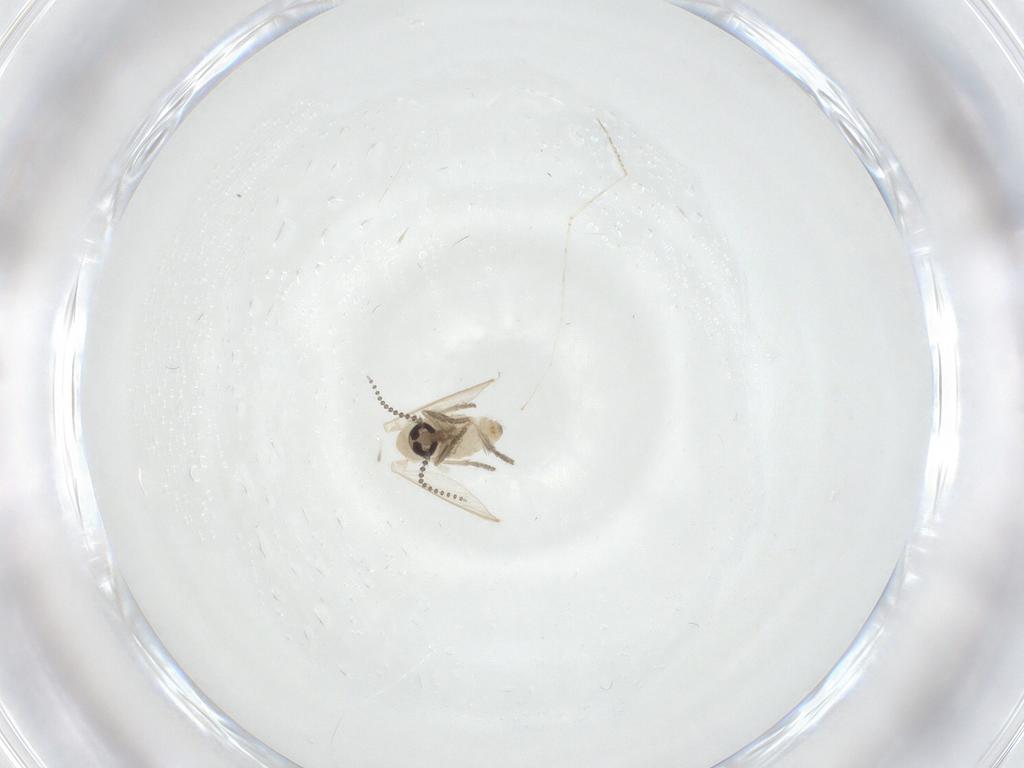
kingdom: Animalia
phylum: Arthropoda
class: Insecta
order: Diptera
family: Psychodidae
